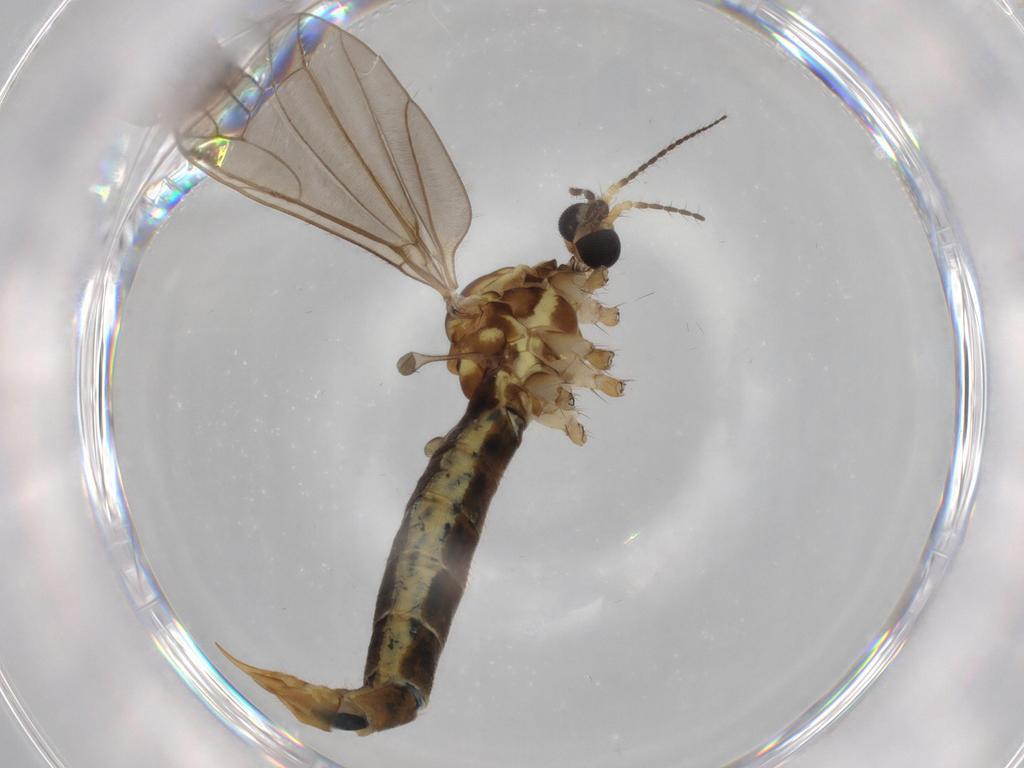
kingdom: Animalia
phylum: Arthropoda
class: Insecta
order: Diptera
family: Limoniidae
